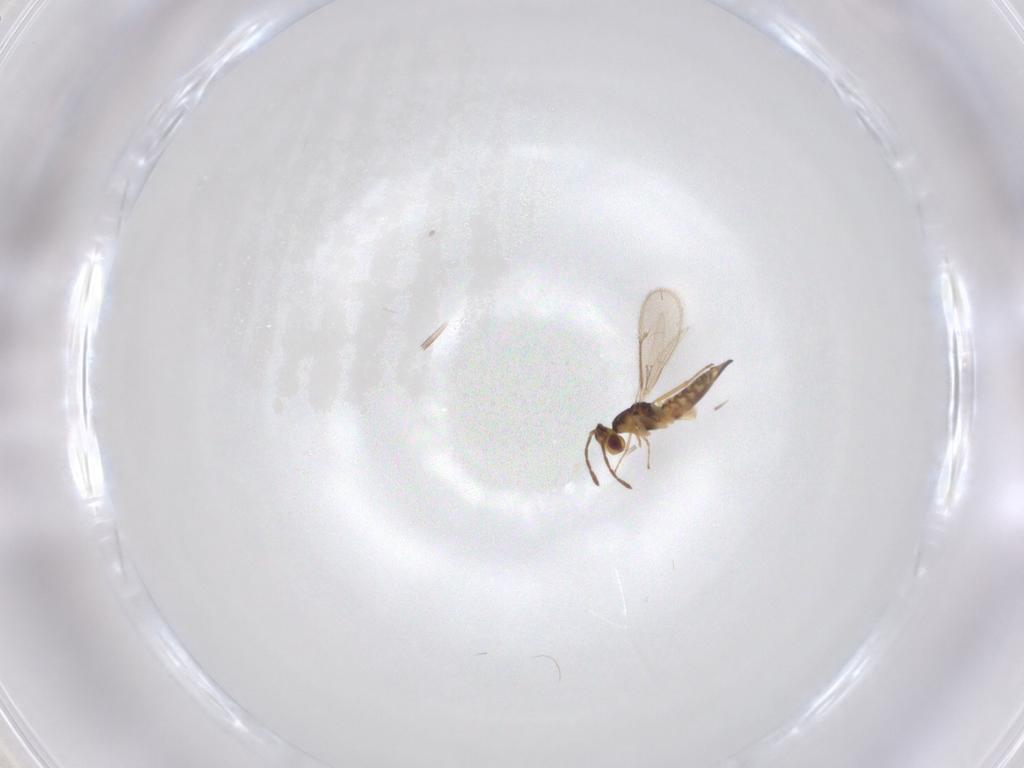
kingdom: Animalia
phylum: Arthropoda
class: Insecta
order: Hymenoptera
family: Eulophidae
